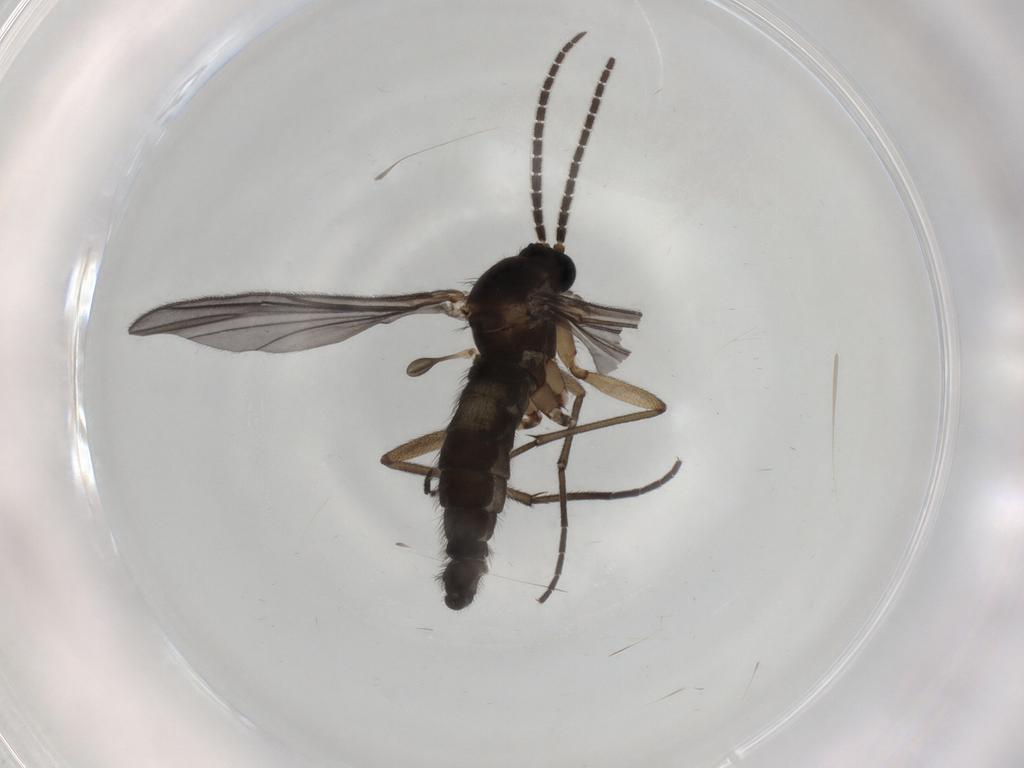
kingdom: Animalia
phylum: Arthropoda
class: Insecta
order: Diptera
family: Sciaridae
